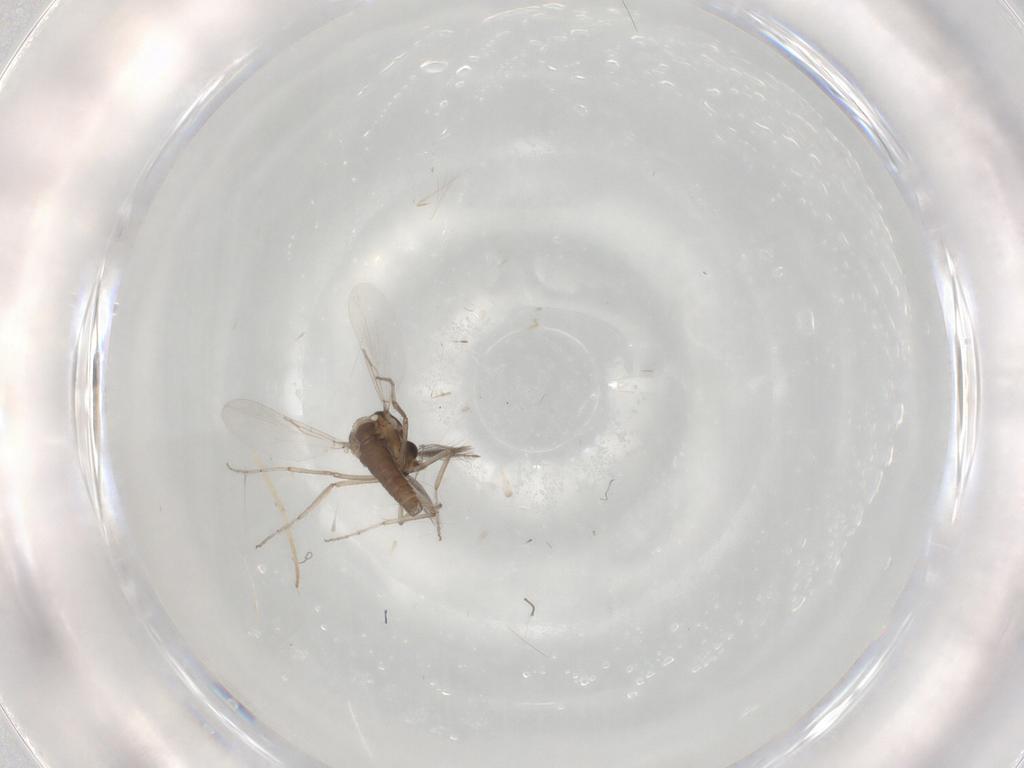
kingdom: Animalia
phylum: Arthropoda
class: Insecta
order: Diptera
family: Ceratopogonidae
